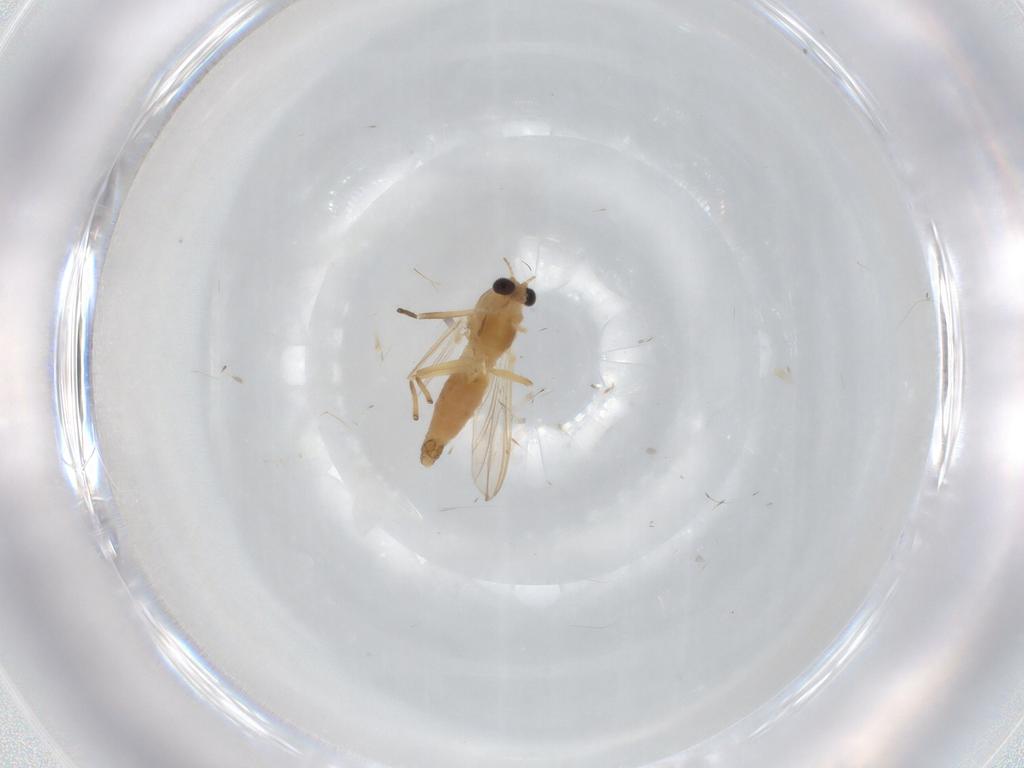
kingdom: Animalia
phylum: Arthropoda
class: Insecta
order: Diptera
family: Chironomidae
